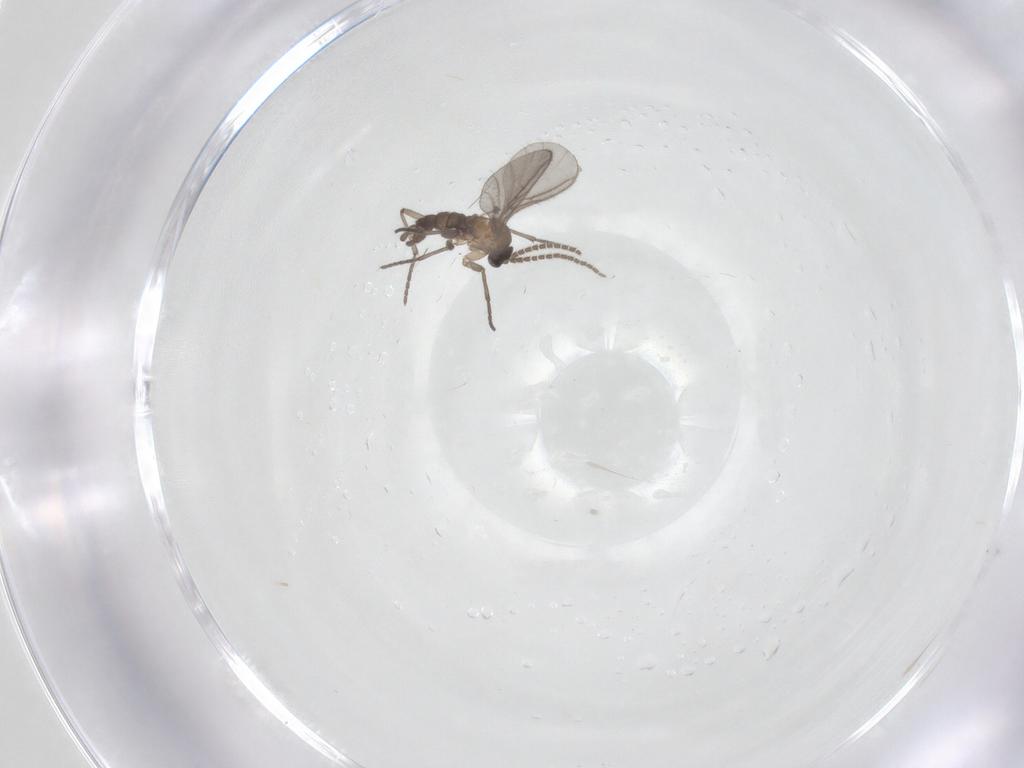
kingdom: Animalia
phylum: Arthropoda
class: Insecta
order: Diptera
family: Sciaridae
